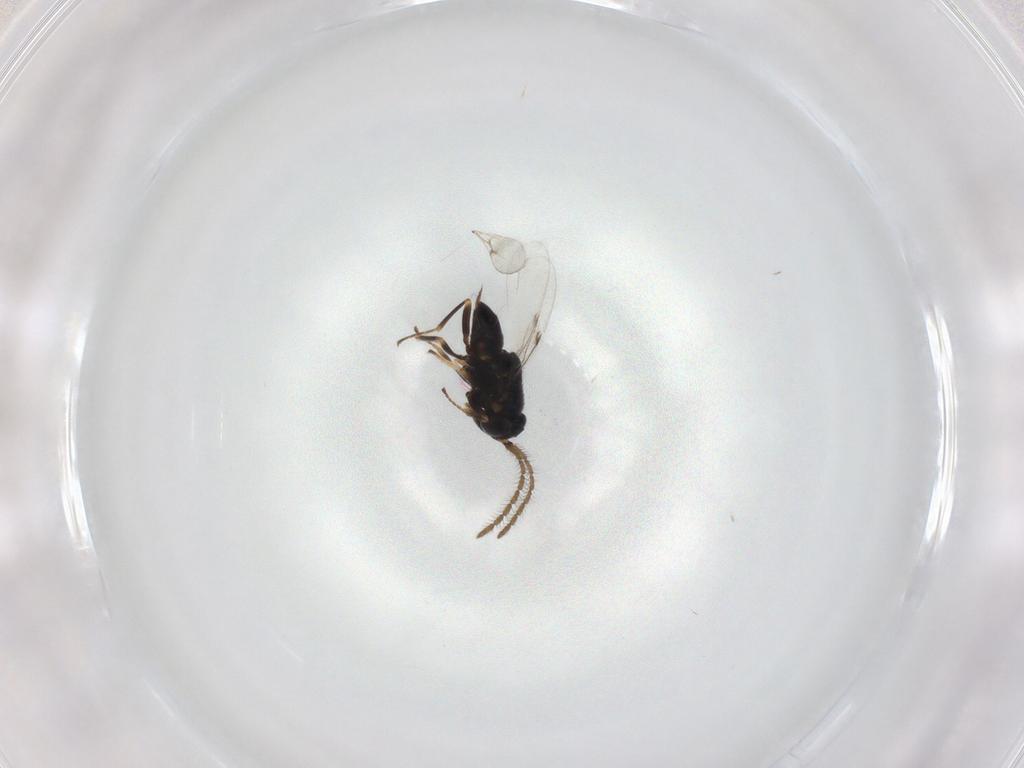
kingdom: Animalia
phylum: Arthropoda
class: Insecta
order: Hymenoptera
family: Encyrtidae
